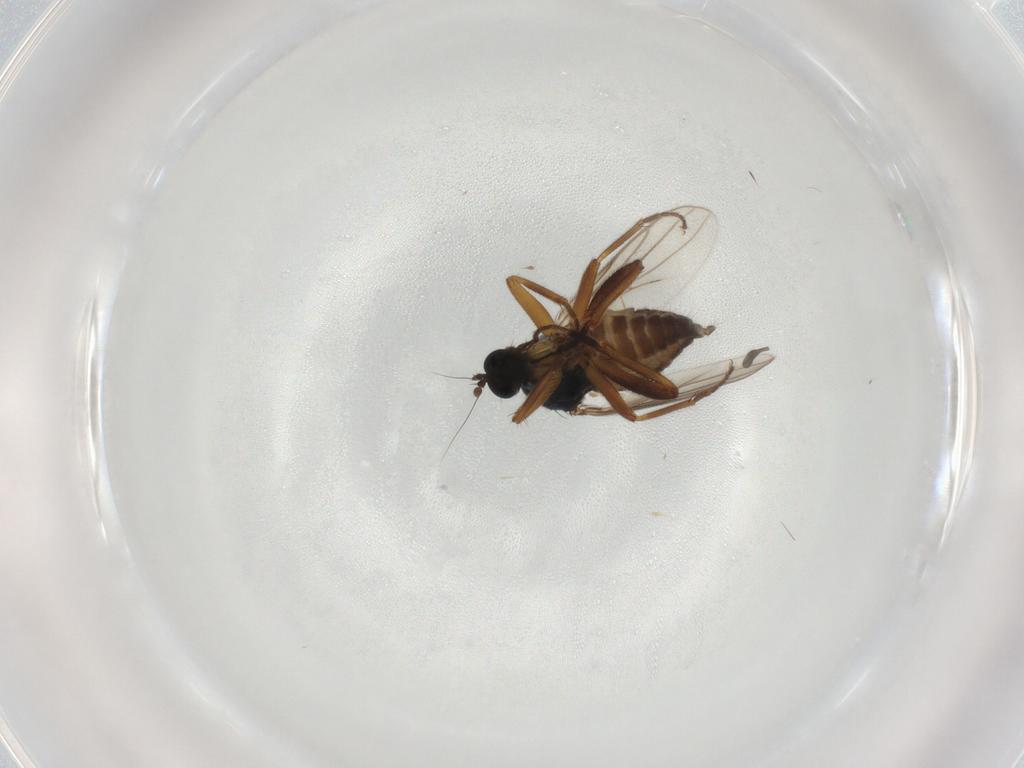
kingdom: Animalia
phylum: Arthropoda
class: Insecta
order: Diptera
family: Hybotidae
